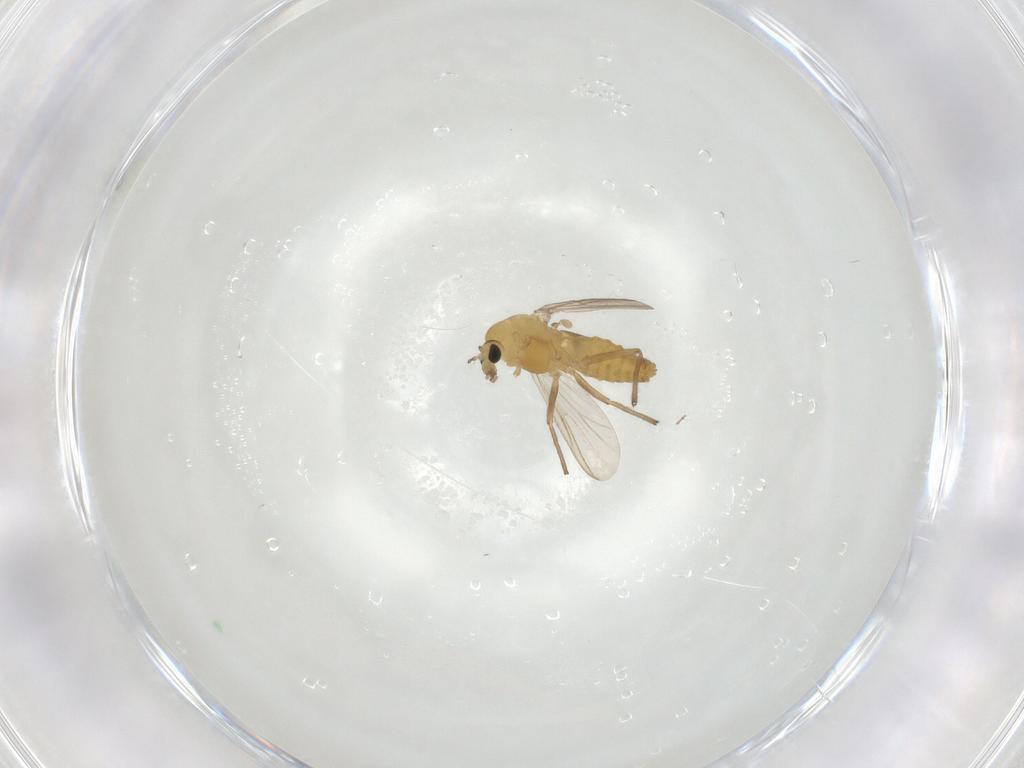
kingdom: Animalia
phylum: Arthropoda
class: Insecta
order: Diptera
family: Chironomidae
